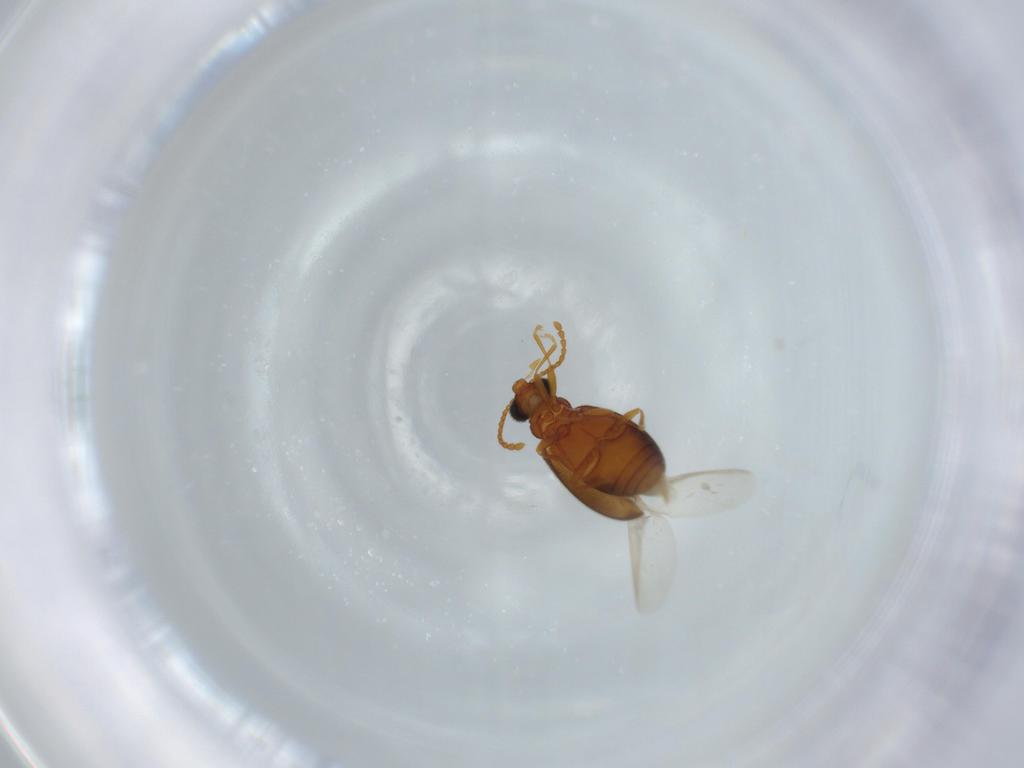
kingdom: Animalia
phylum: Arthropoda
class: Insecta
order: Coleoptera
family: Aderidae
